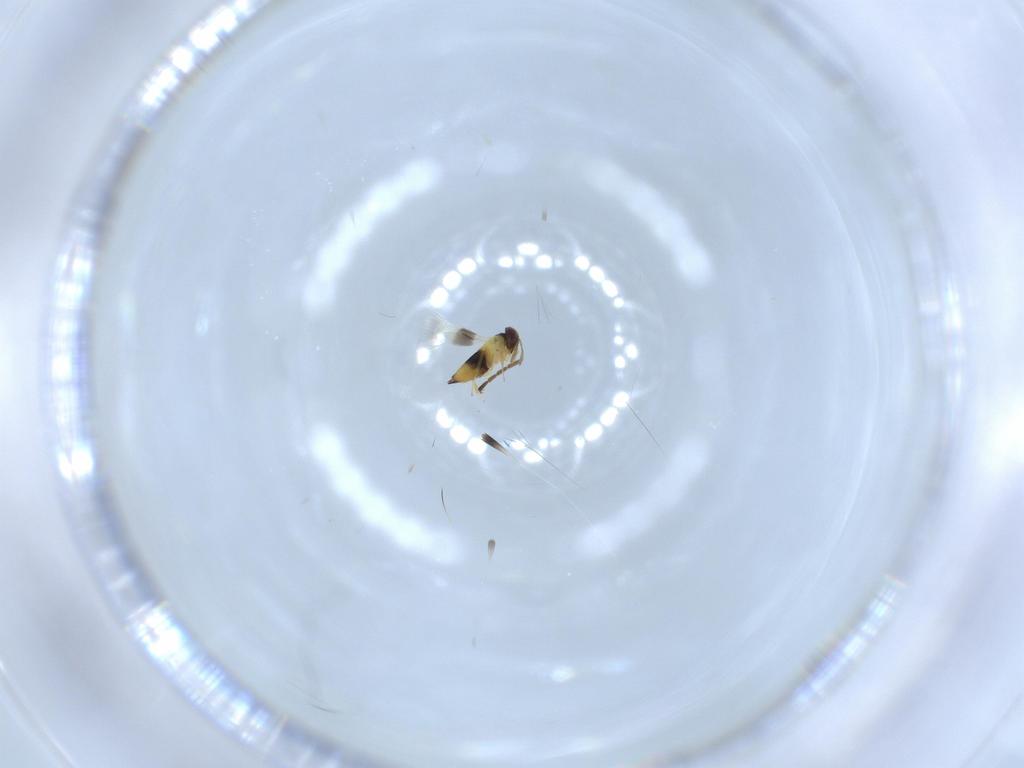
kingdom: Animalia
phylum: Arthropoda
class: Insecta
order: Hymenoptera
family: Signiphoridae
